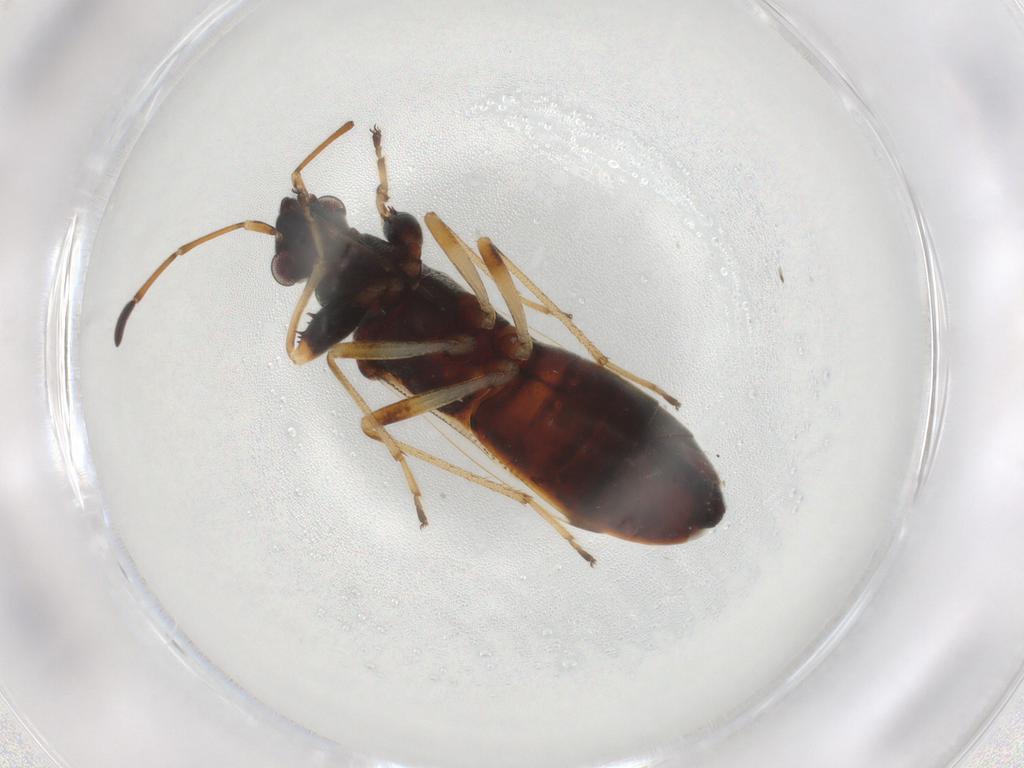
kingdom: Animalia
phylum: Arthropoda
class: Insecta
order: Hemiptera
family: Rhyparochromidae
